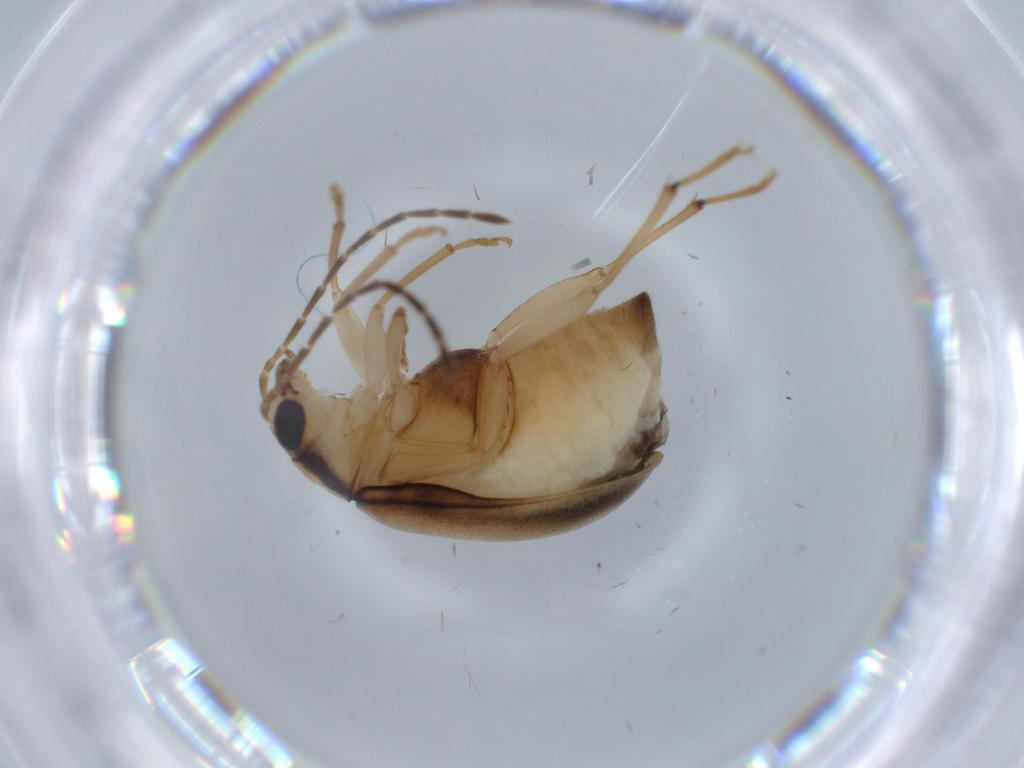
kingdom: Animalia
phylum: Arthropoda
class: Insecta
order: Coleoptera
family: Chrysomelidae
